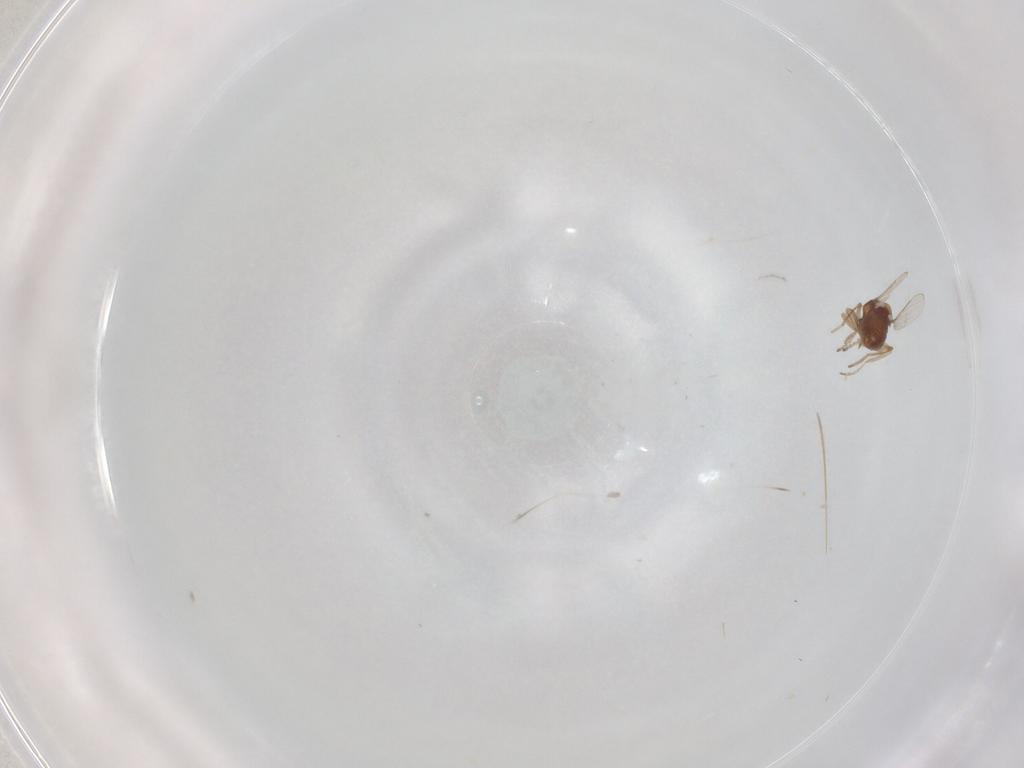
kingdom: Animalia
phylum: Arthropoda
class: Insecta
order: Diptera
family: Ceratopogonidae
